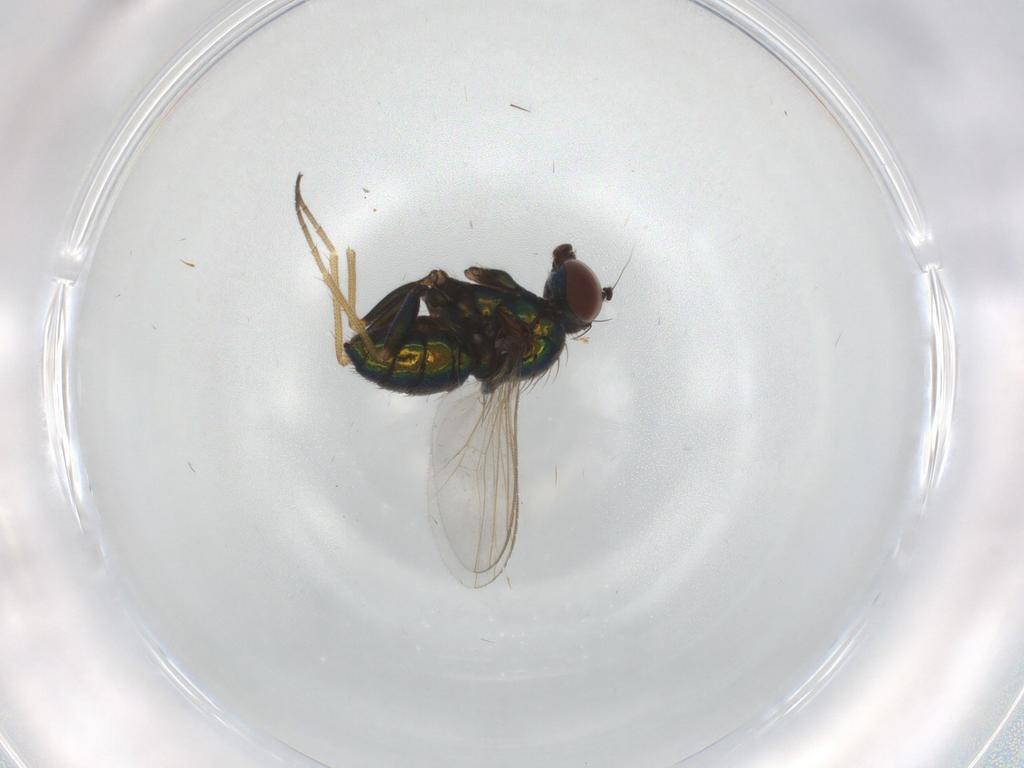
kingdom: Animalia
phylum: Arthropoda
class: Insecta
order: Diptera
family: Dolichopodidae
